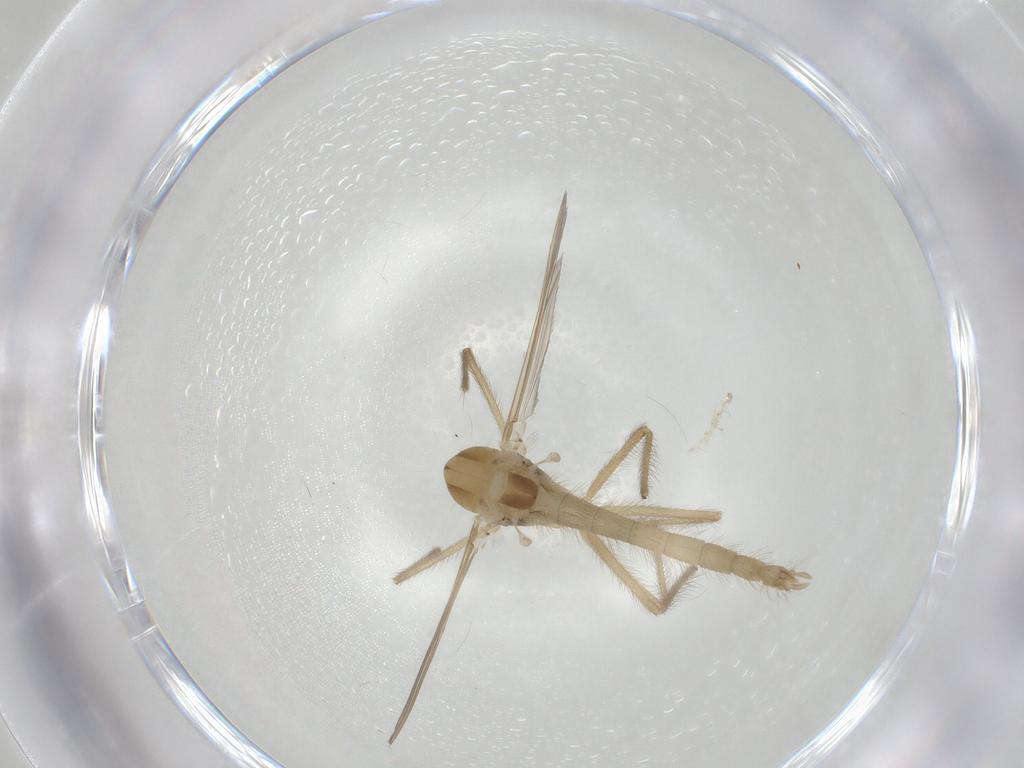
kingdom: Animalia
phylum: Arthropoda
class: Insecta
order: Diptera
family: Chironomidae
